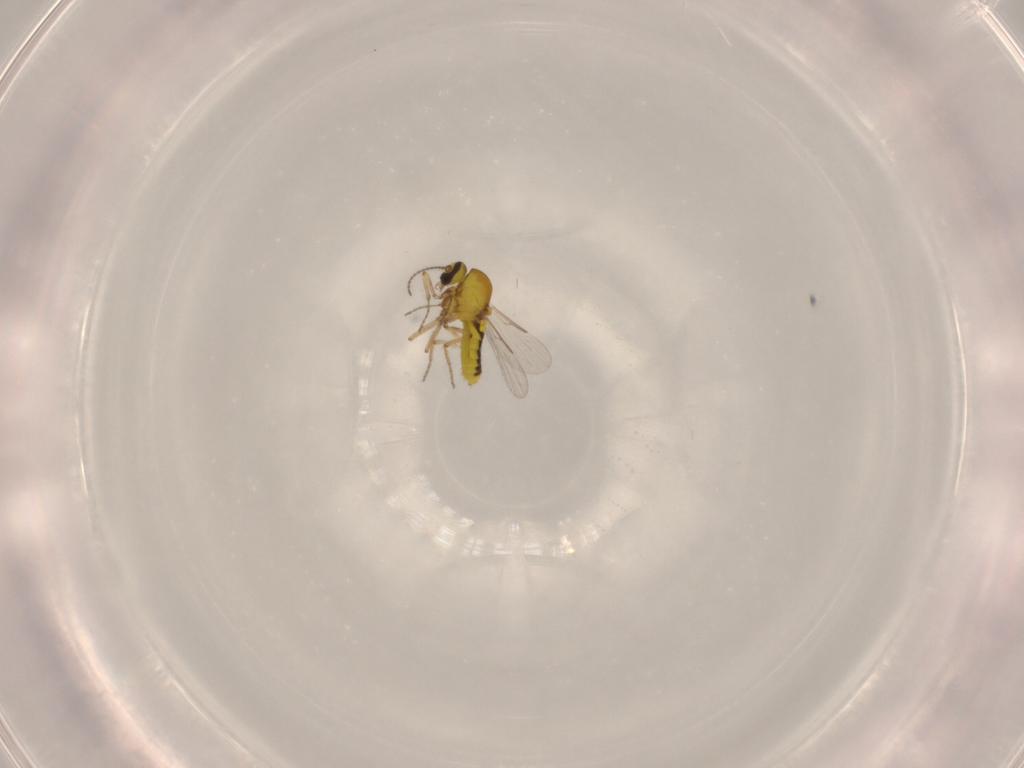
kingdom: Animalia
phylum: Arthropoda
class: Insecta
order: Diptera
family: Ceratopogonidae
